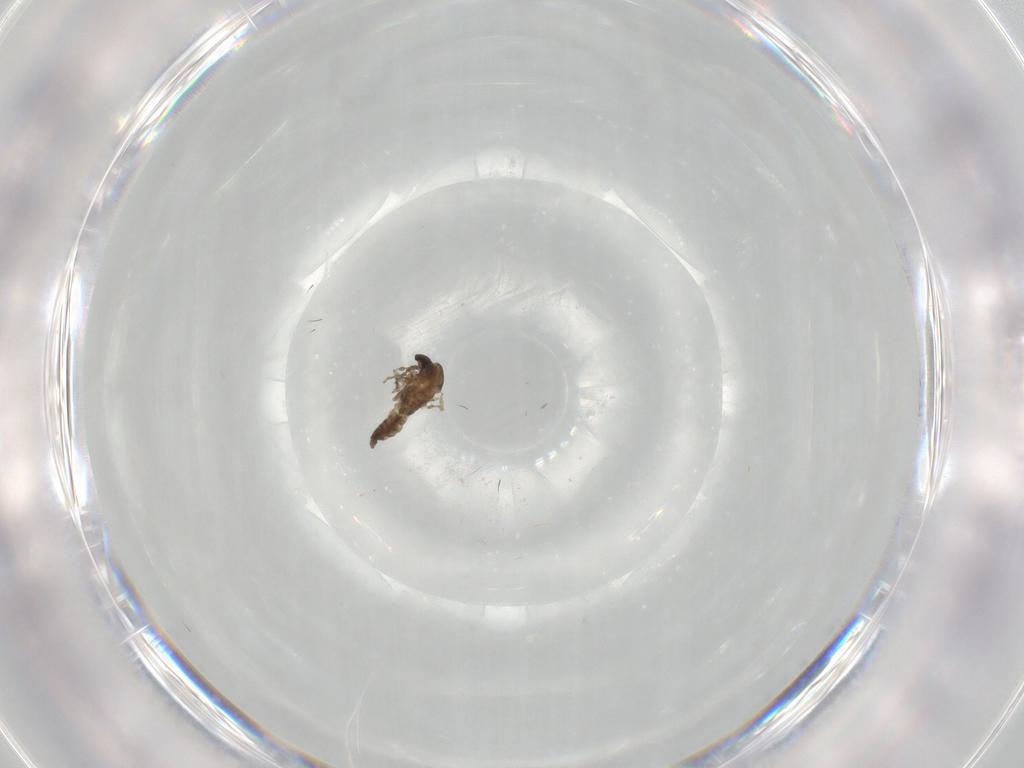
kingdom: Animalia
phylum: Arthropoda
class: Insecta
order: Diptera
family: Cecidomyiidae
